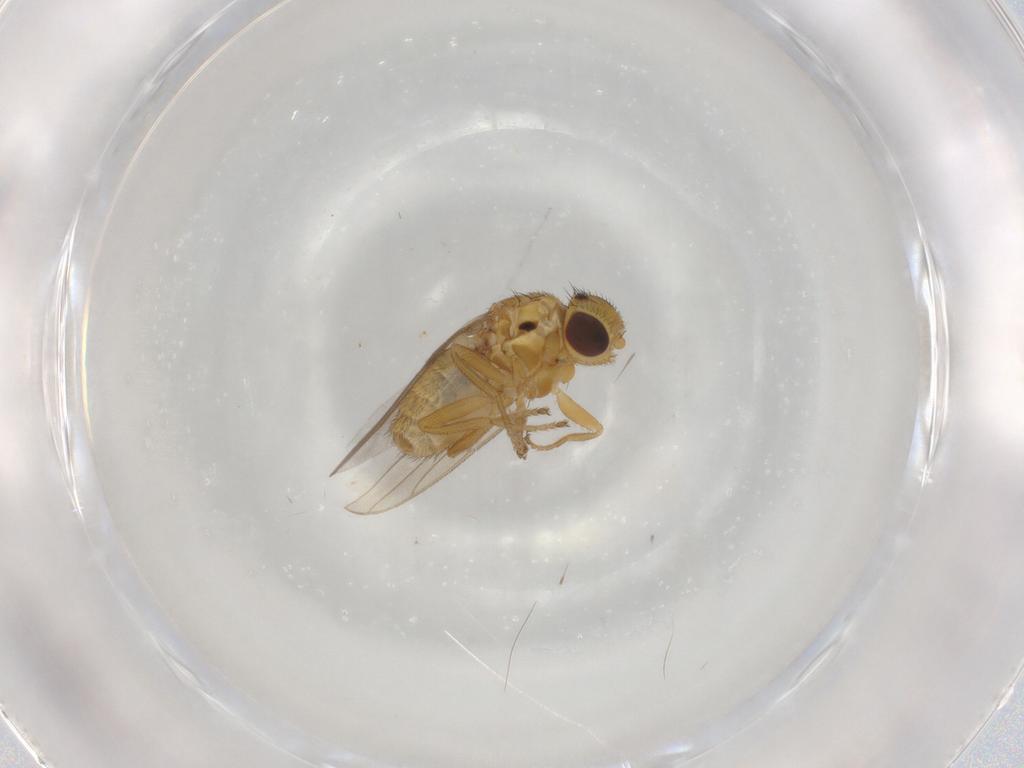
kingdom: Animalia
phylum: Arthropoda
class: Insecta
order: Diptera
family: Chloropidae
